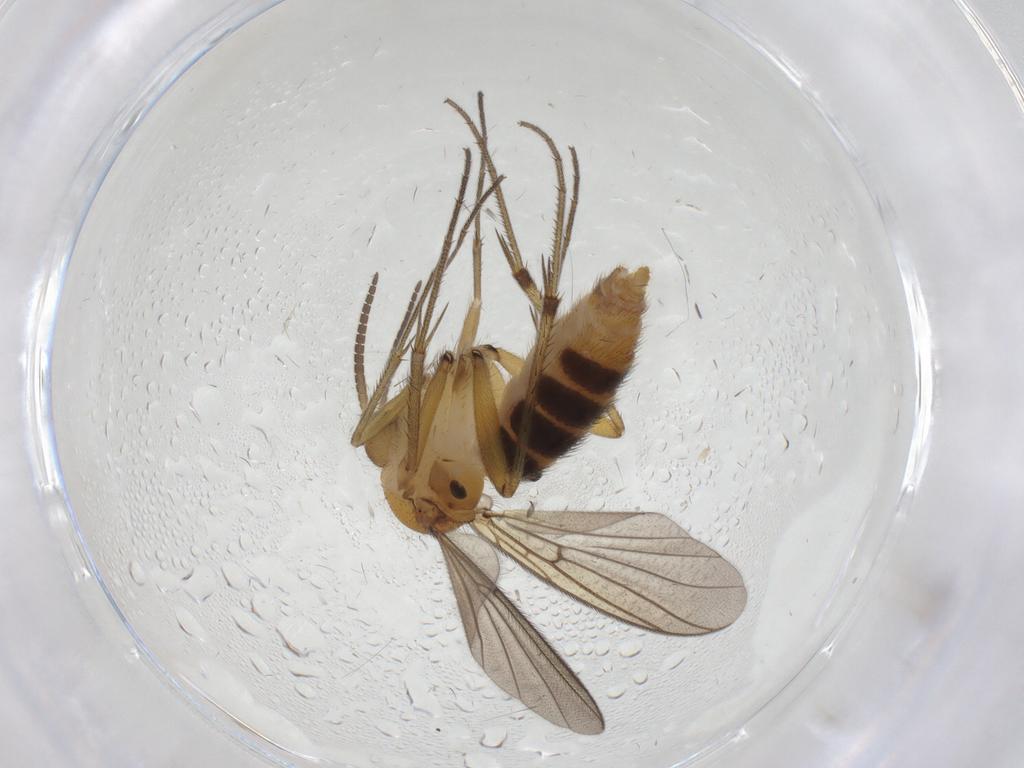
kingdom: Animalia
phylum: Arthropoda
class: Insecta
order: Diptera
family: Chironomidae
